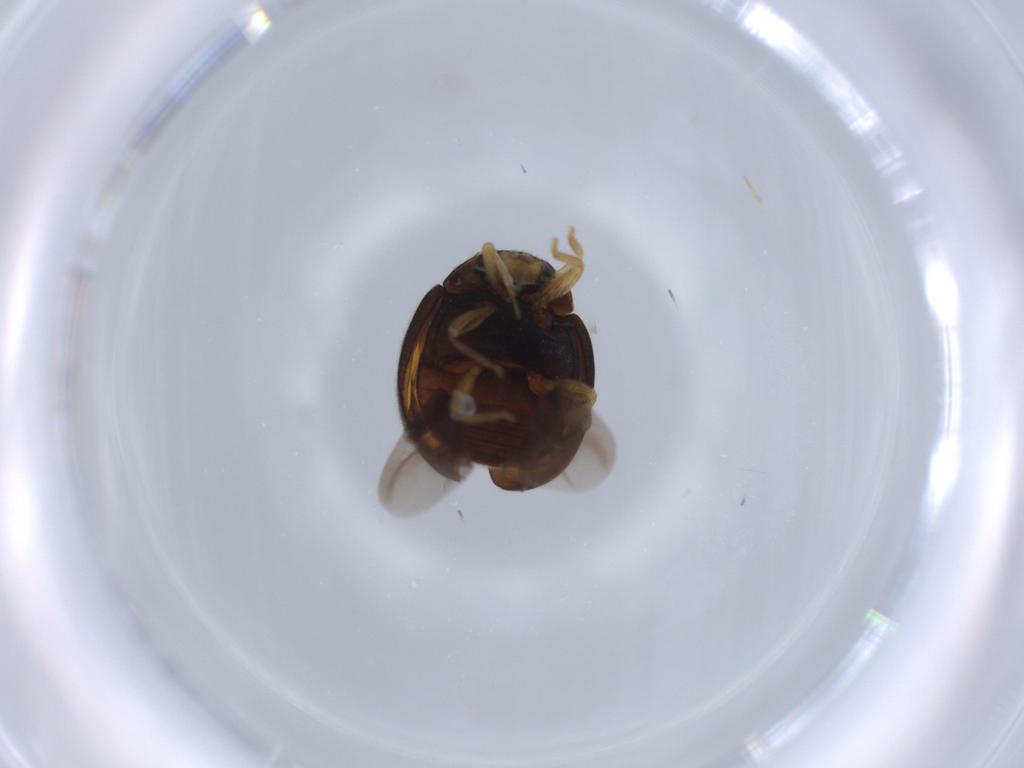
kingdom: Animalia
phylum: Arthropoda
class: Insecta
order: Coleoptera
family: Coccinellidae
